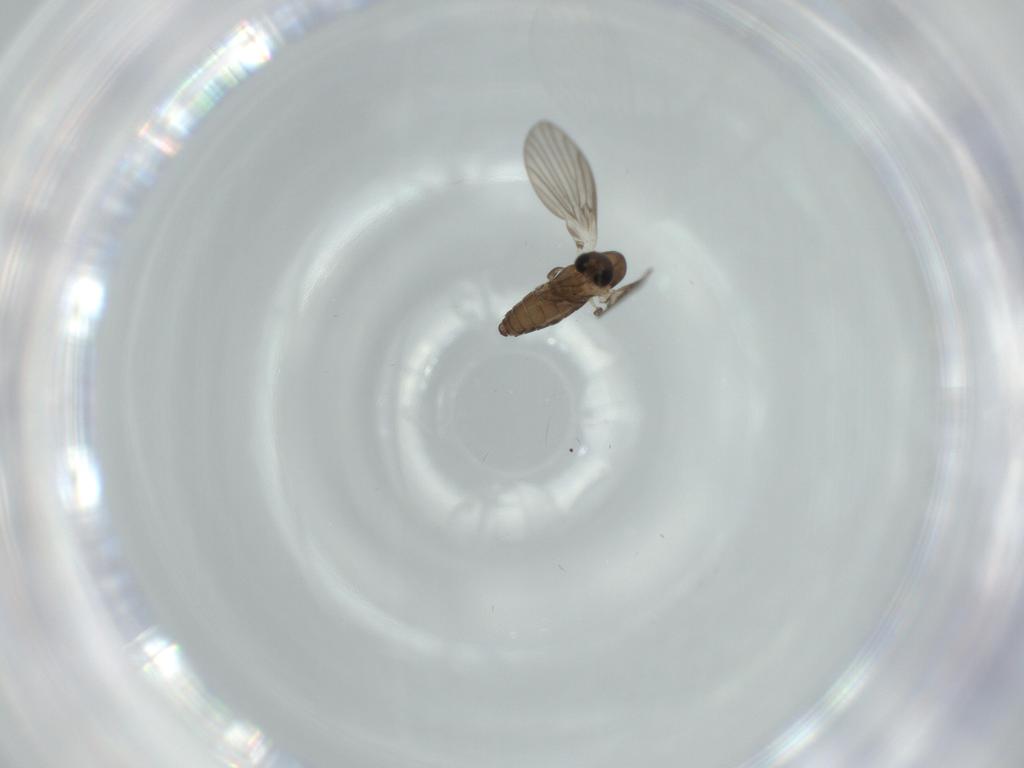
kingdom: Animalia
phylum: Arthropoda
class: Insecta
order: Diptera
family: Psychodidae
